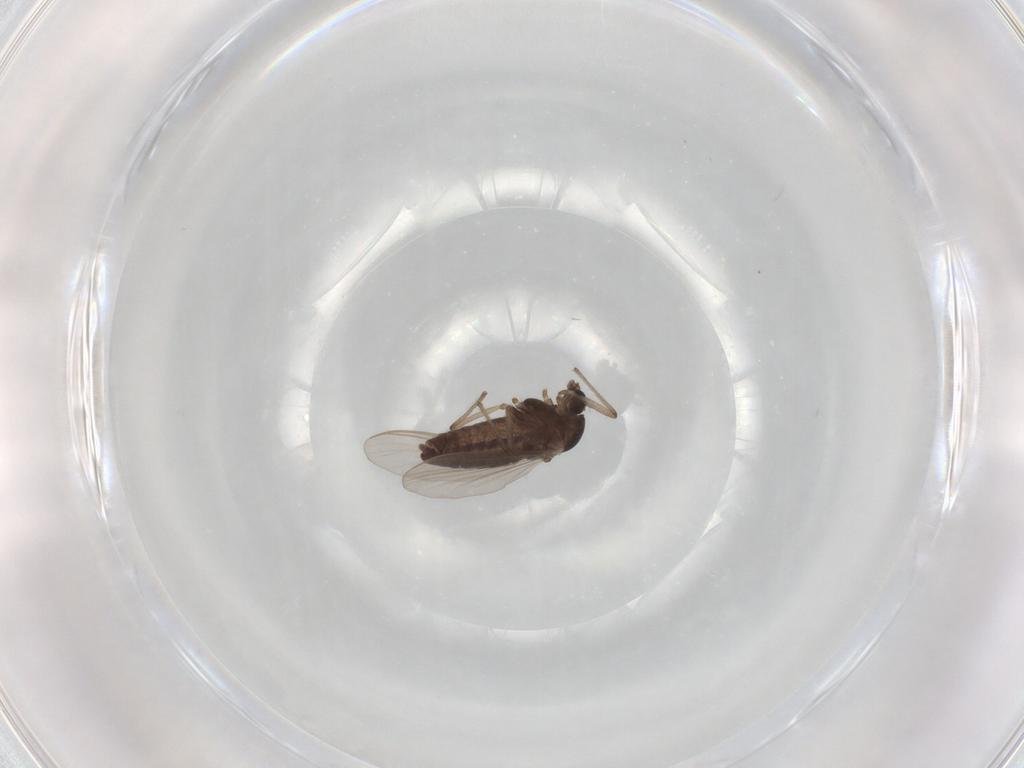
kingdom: Animalia
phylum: Arthropoda
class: Insecta
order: Diptera
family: Chironomidae
